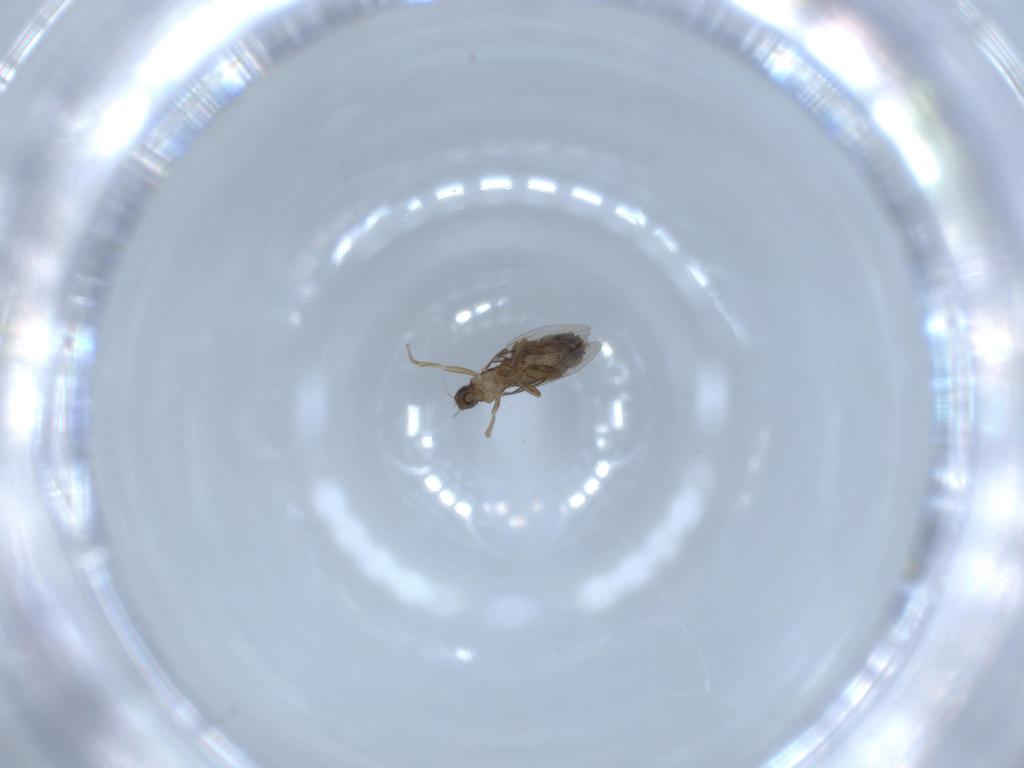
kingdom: Animalia
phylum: Arthropoda
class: Insecta
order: Diptera
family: Phoridae
